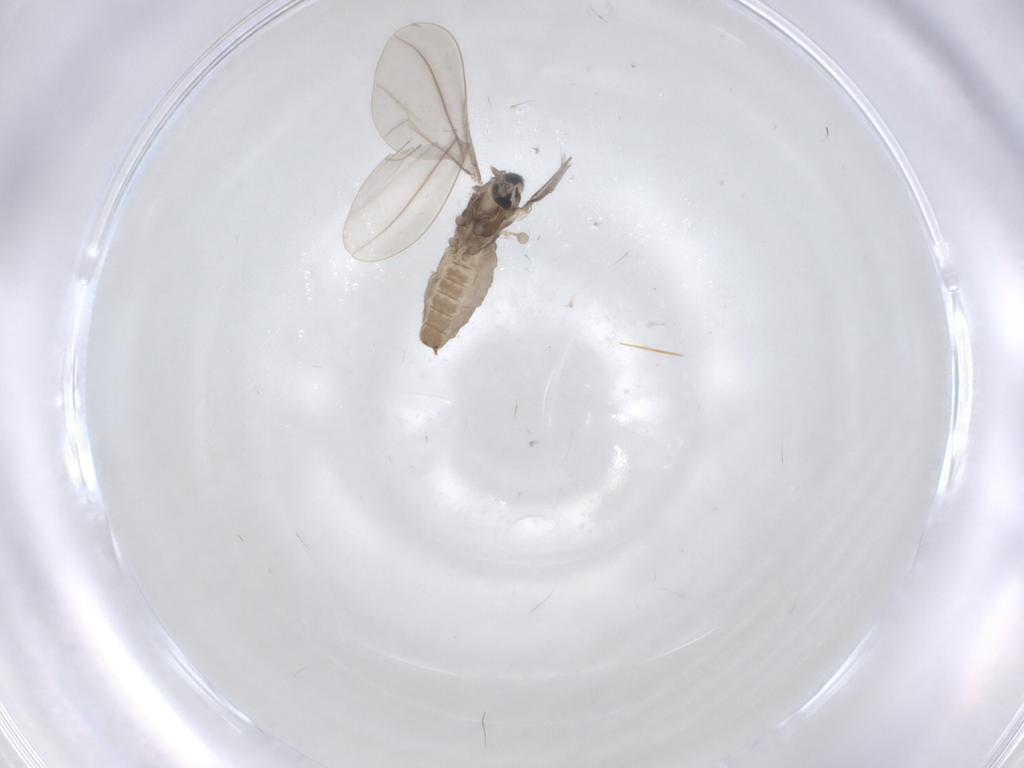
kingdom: Animalia
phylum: Arthropoda
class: Insecta
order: Diptera
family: Cecidomyiidae
